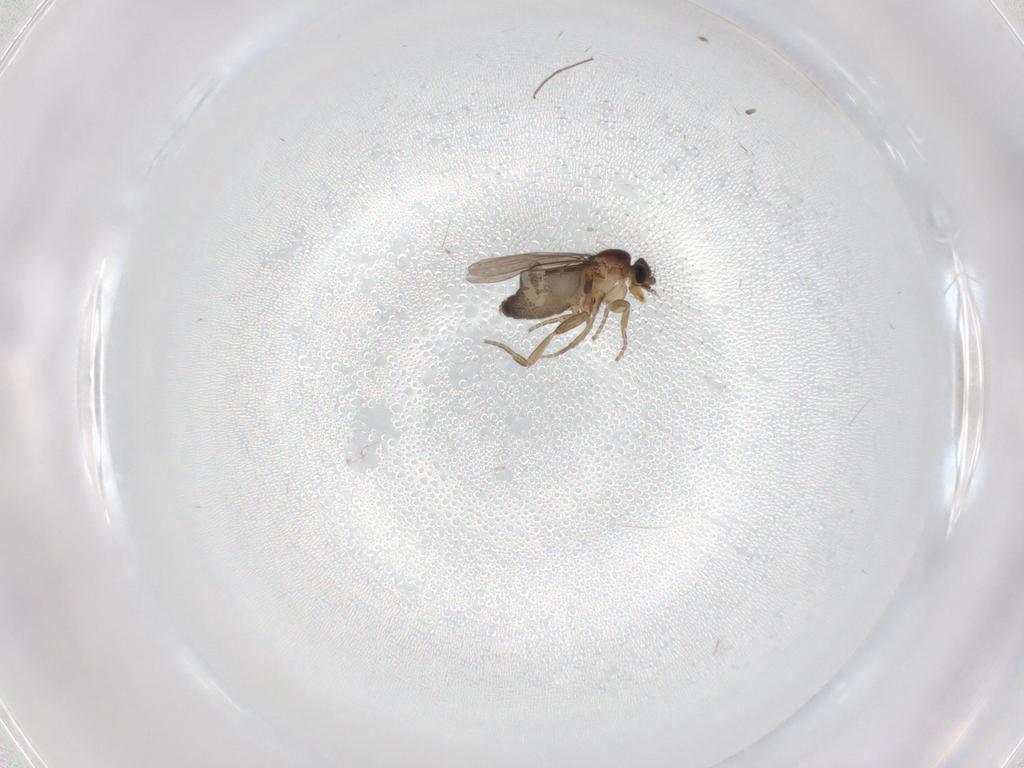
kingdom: Animalia
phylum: Arthropoda
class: Insecta
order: Diptera
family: Phoridae
